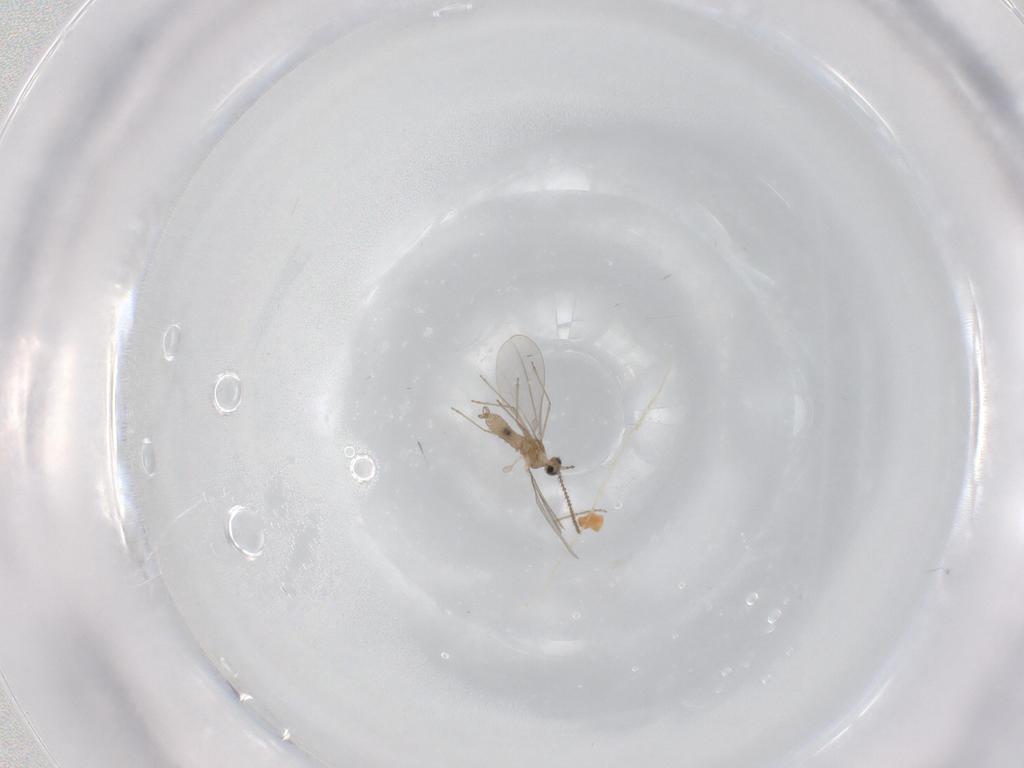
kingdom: Animalia
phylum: Arthropoda
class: Insecta
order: Diptera
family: Cecidomyiidae
